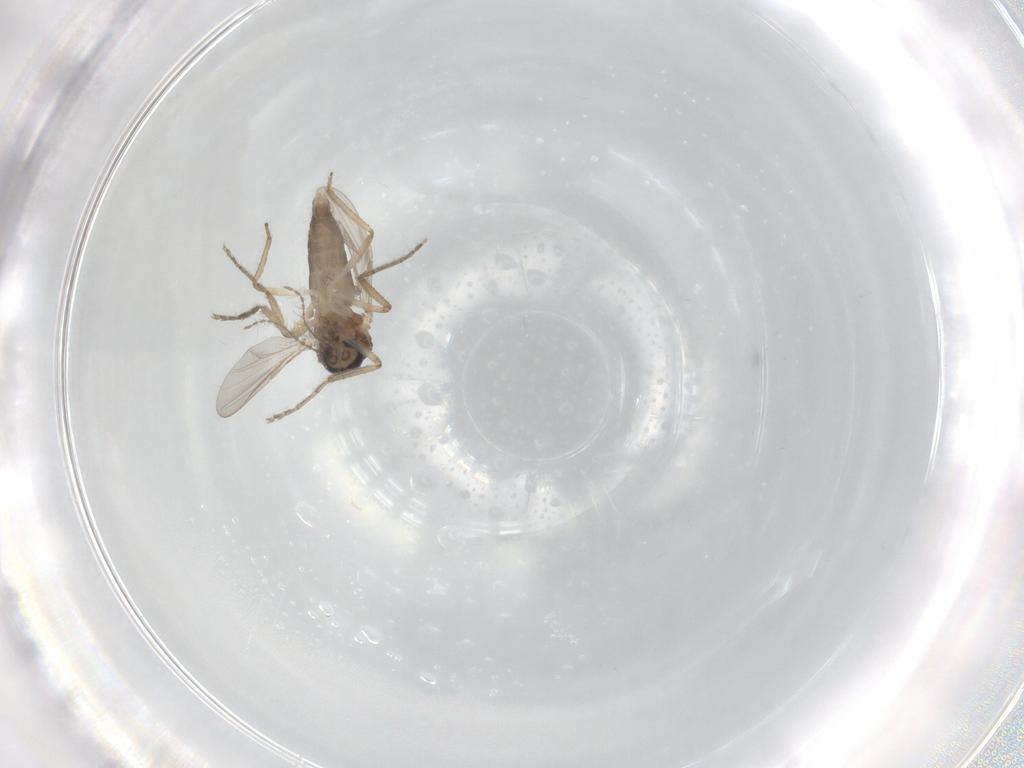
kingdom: Animalia
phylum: Arthropoda
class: Insecta
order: Diptera
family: Ceratopogonidae
